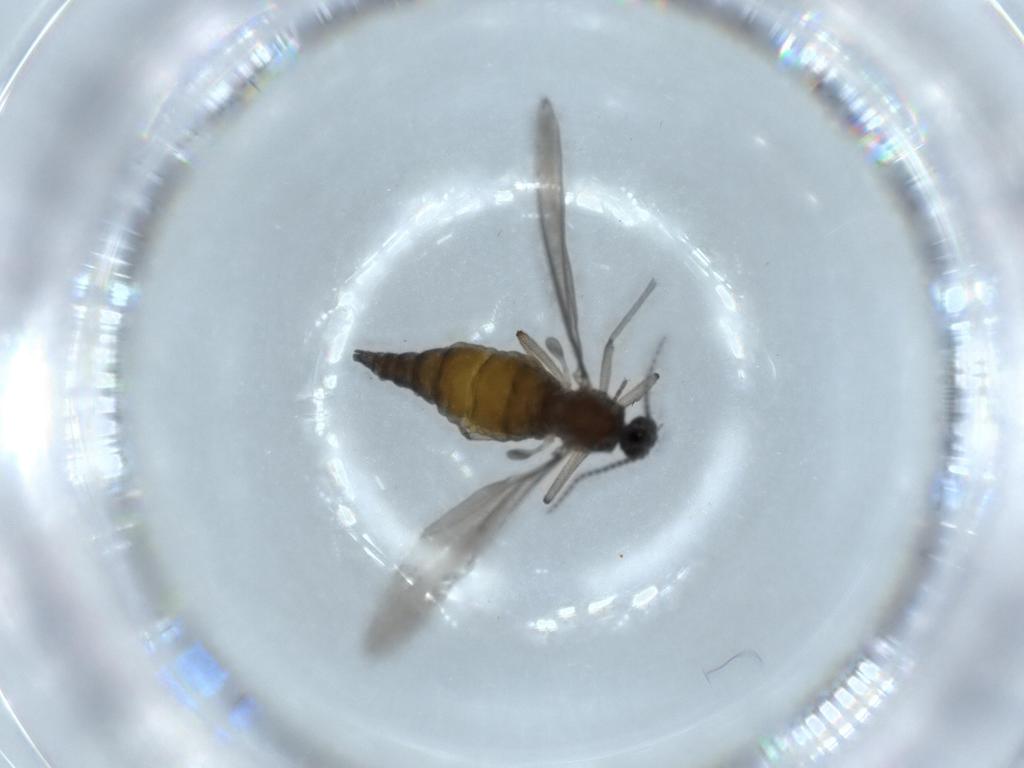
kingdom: Animalia
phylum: Arthropoda
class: Insecta
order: Diptera
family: Sciaridae
